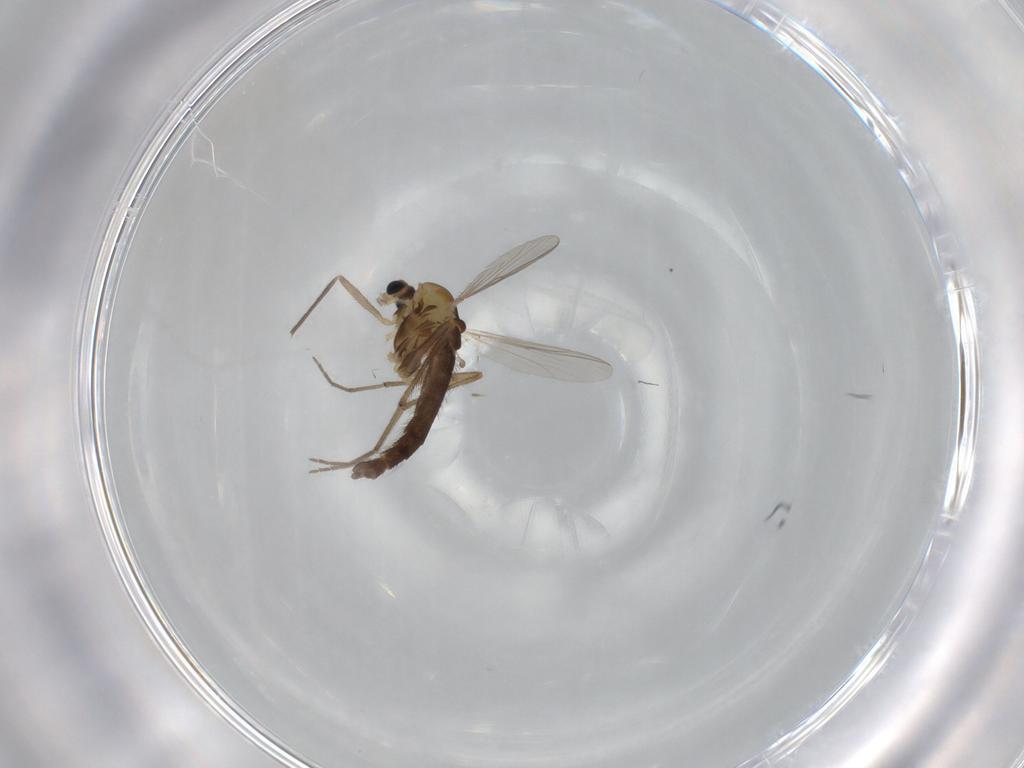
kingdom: Animalia
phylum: Arthropoda
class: Insecta
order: Diptera
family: Chironomidae
